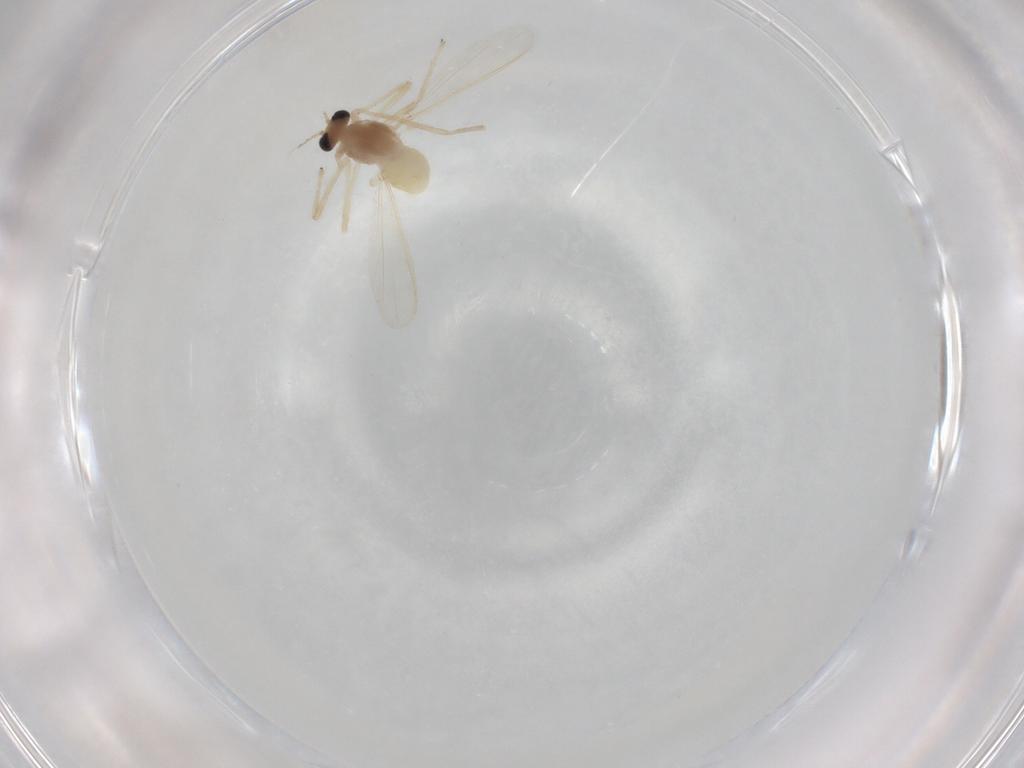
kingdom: Animalia
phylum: Arthropoda
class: Insecta
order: Diptera
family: Chironomidae
